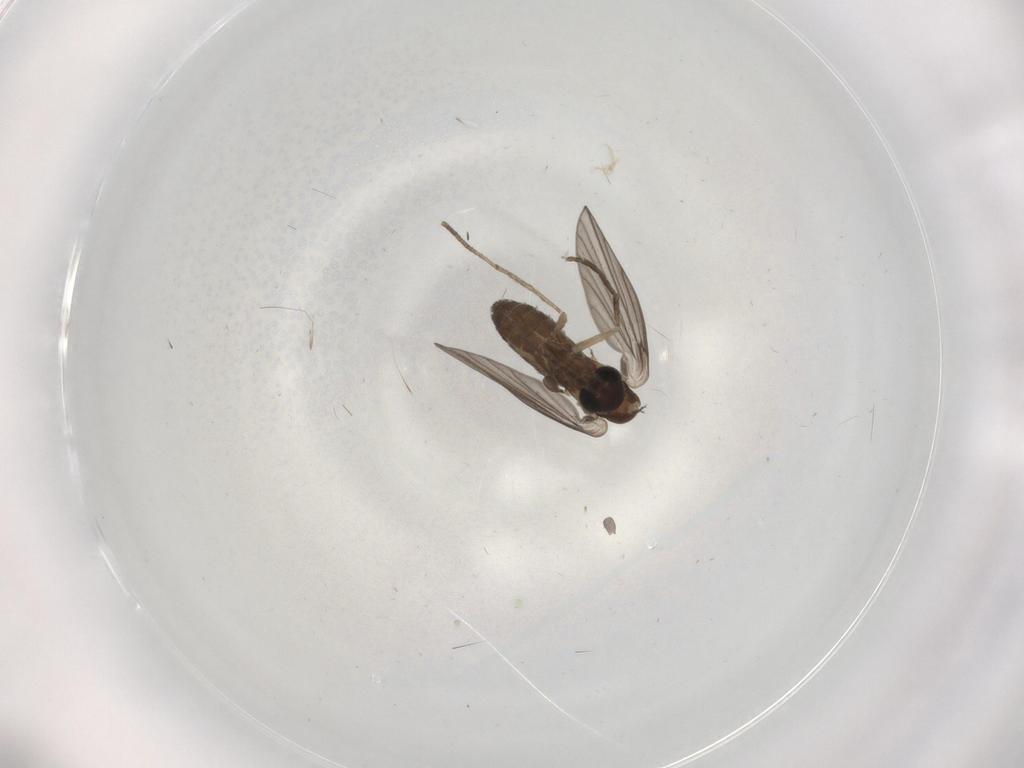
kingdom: Animalia
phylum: Arthropoda
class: Insecta
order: Diptera
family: Psychodidae
